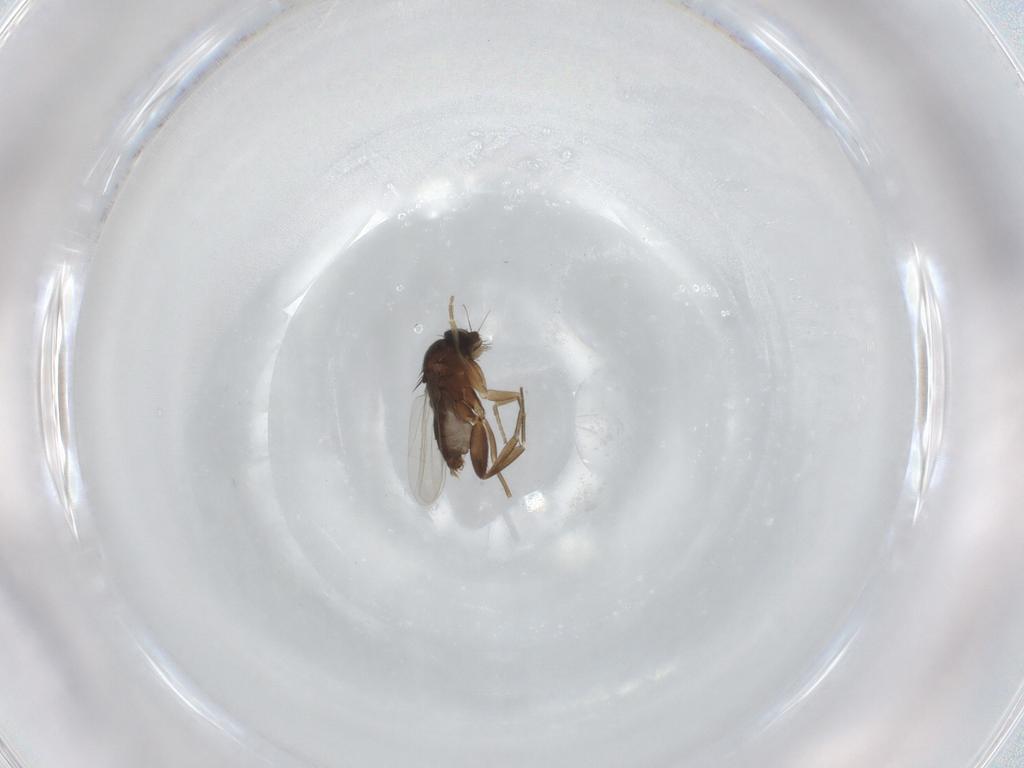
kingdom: Animalia
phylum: Arthropoda
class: Insecta
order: Diptera
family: Phoridae
